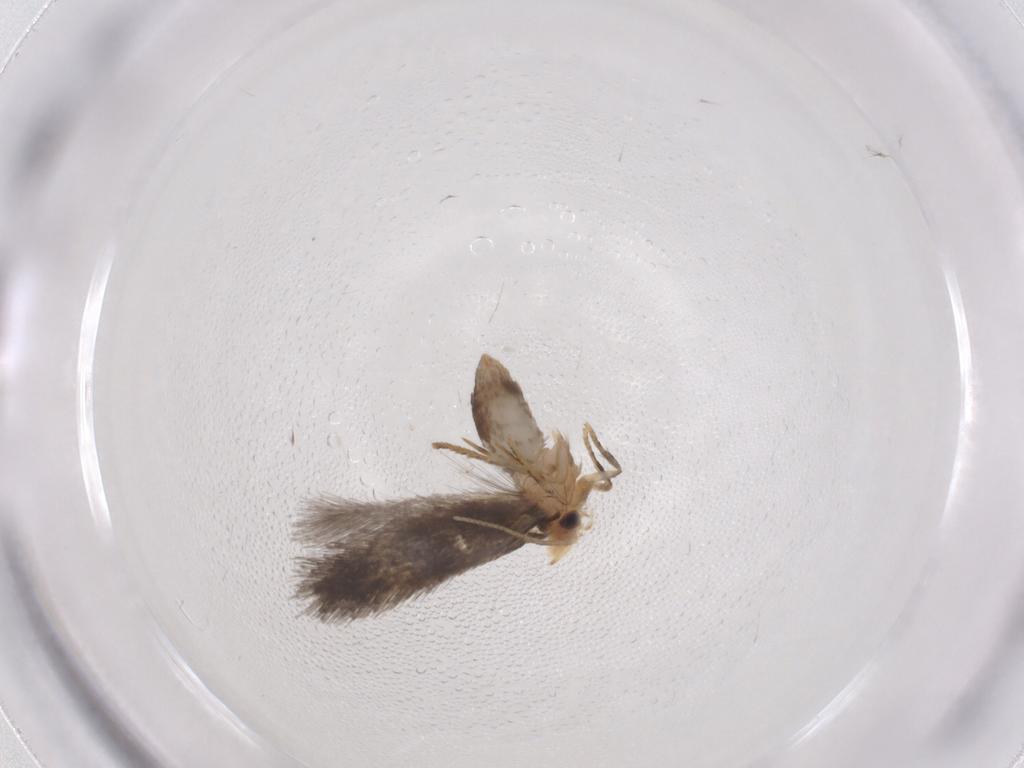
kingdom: Animalia
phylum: Arthropoda
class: Insecta
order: Lepidoptera
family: Nepticulidae
